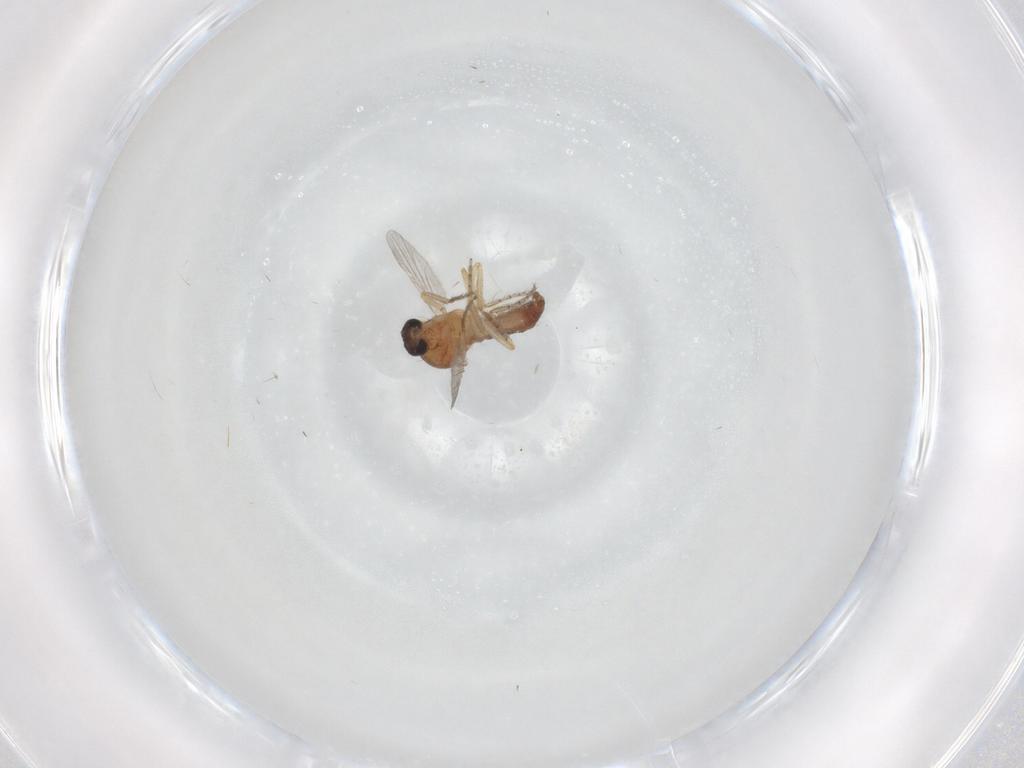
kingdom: Animalia
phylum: Arthropoda
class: Insecta
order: Diptera
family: Ceratopogonidae
